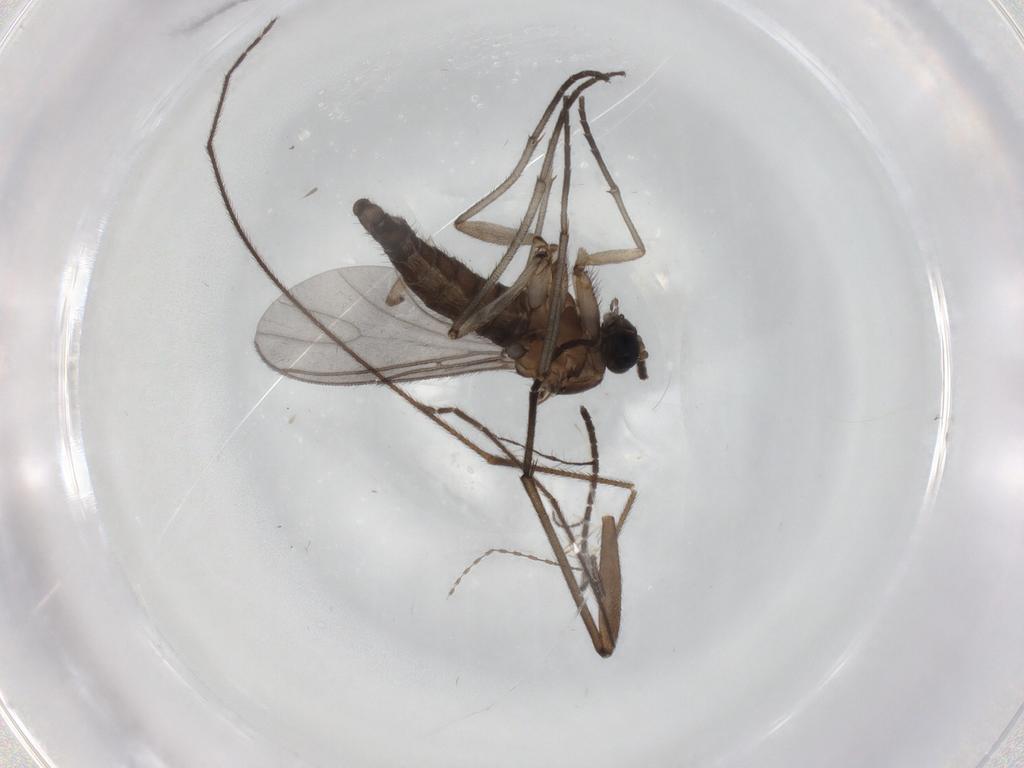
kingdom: Animalia
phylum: Arthropoda
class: Insecta
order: Diptera
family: Sciaridae
